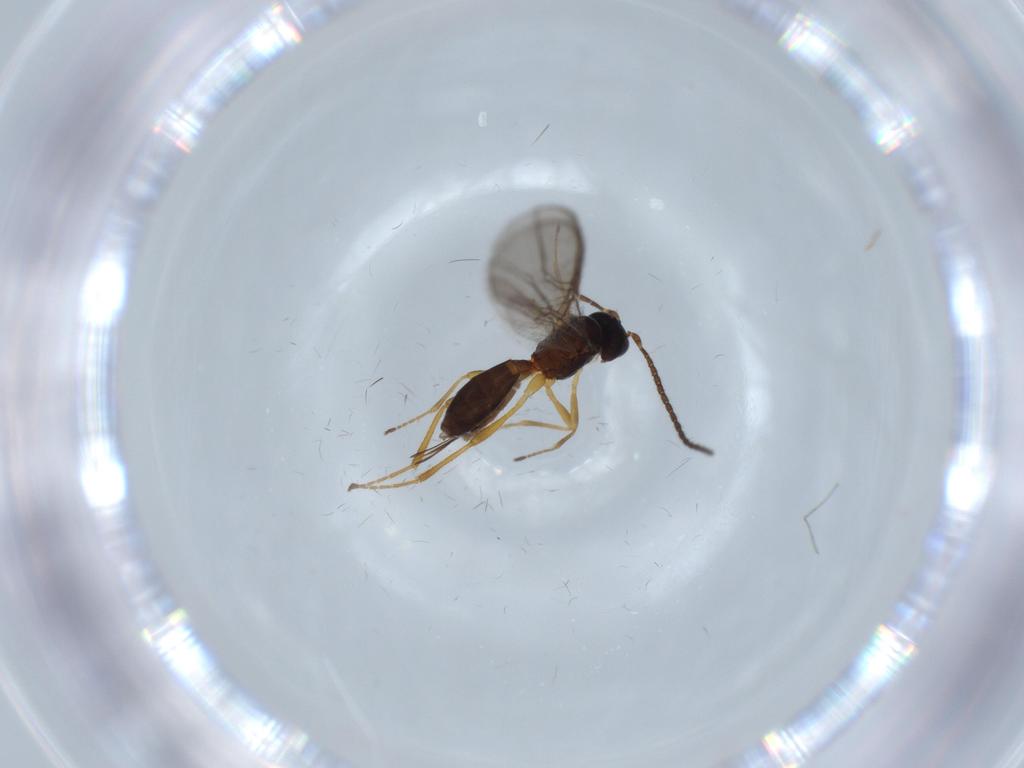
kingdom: Animalia
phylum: Arthropoda
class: Insecta
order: Hymenoptera
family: Braconidae
